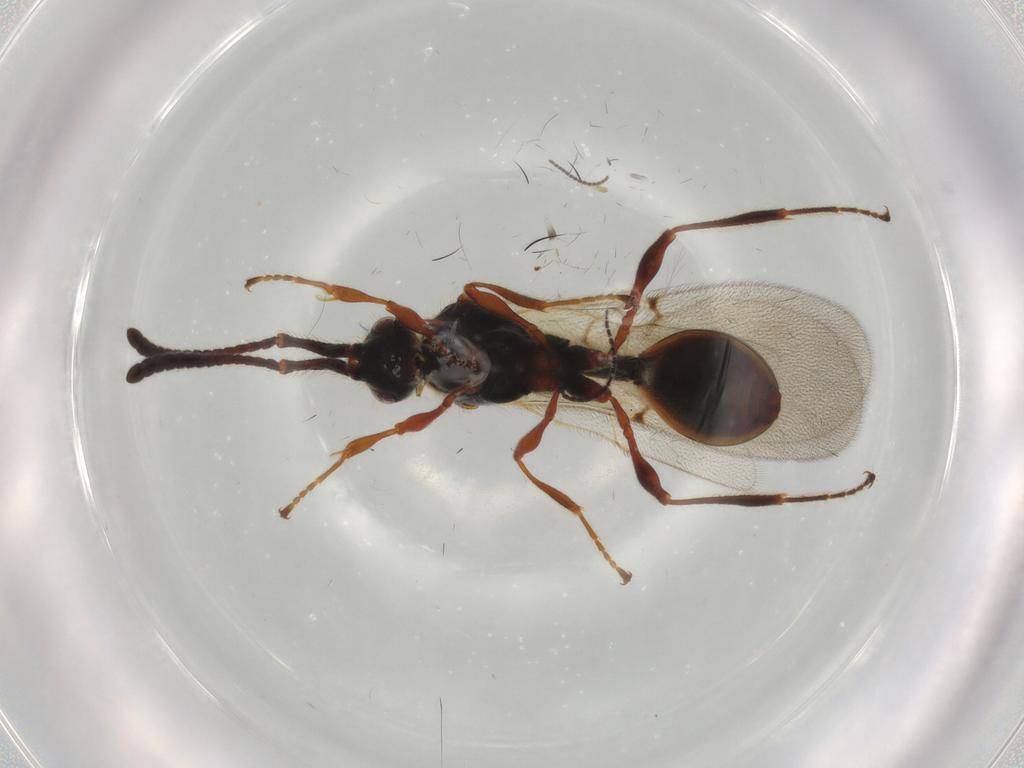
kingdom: Animalia
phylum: Arthropoda
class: Insecta
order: Hymenoptera
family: Diapriidae
